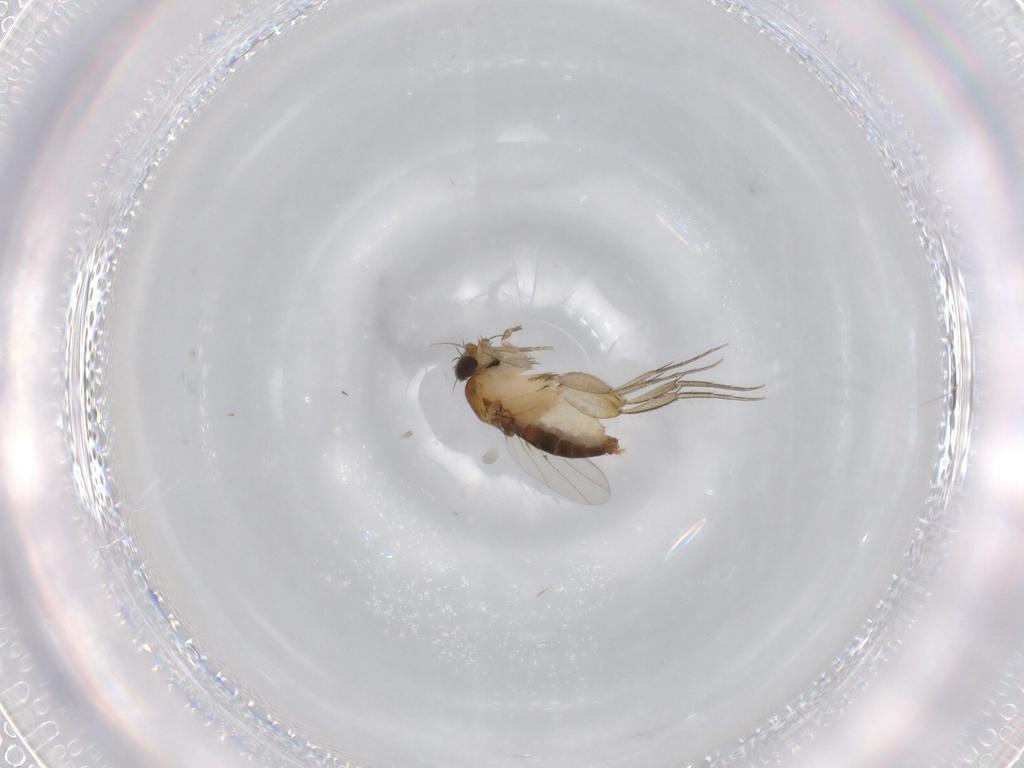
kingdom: Animalia
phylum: Arthropoda
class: Insecta
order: Diptera
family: Phoridae
